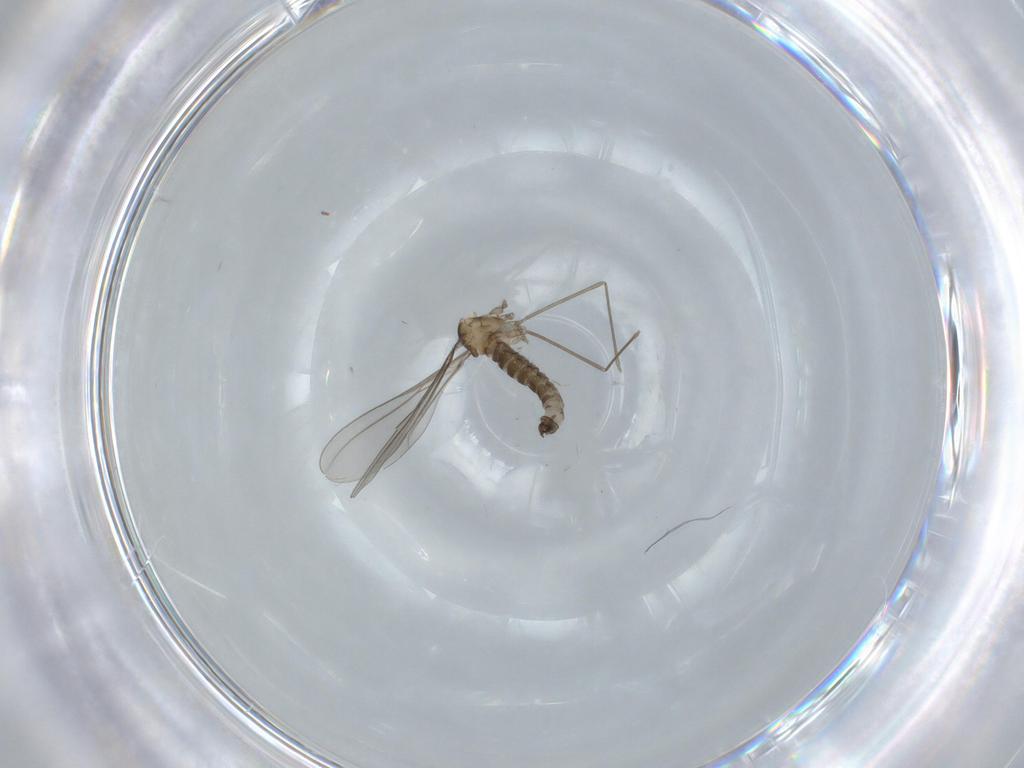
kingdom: Animalia
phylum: Arthropoda
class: Insecta
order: Diptera
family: Cecidomyiidae
